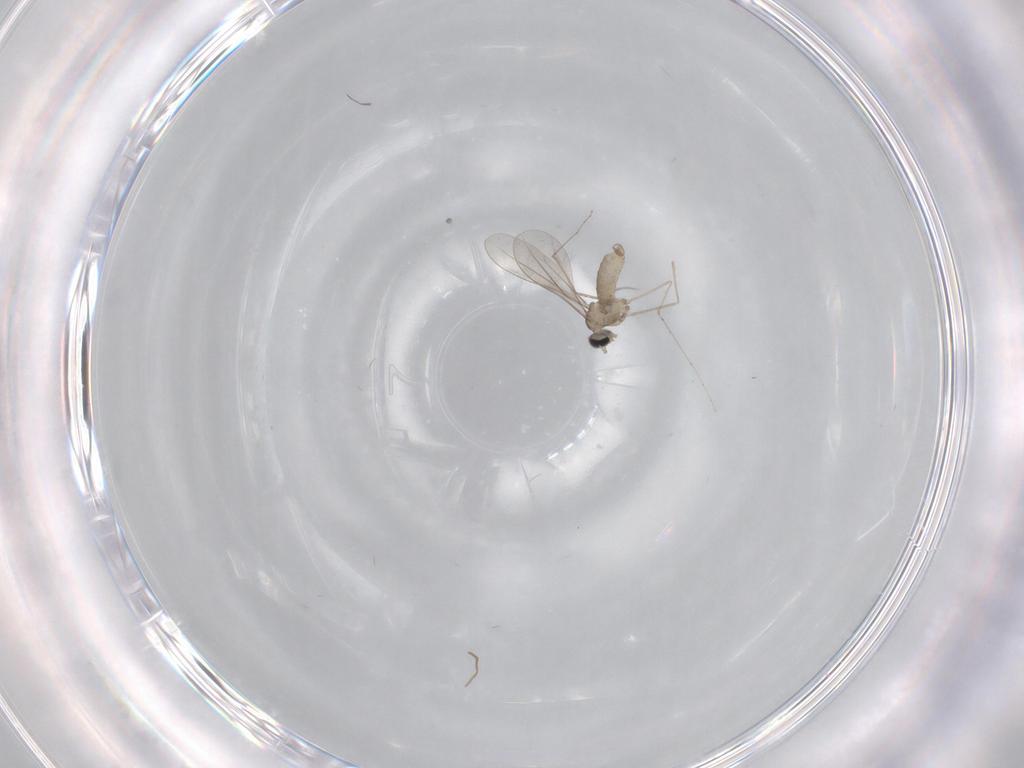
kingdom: Animalia
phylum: Arthropoda
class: Insecta
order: Diptera
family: Cecidomyiidae
